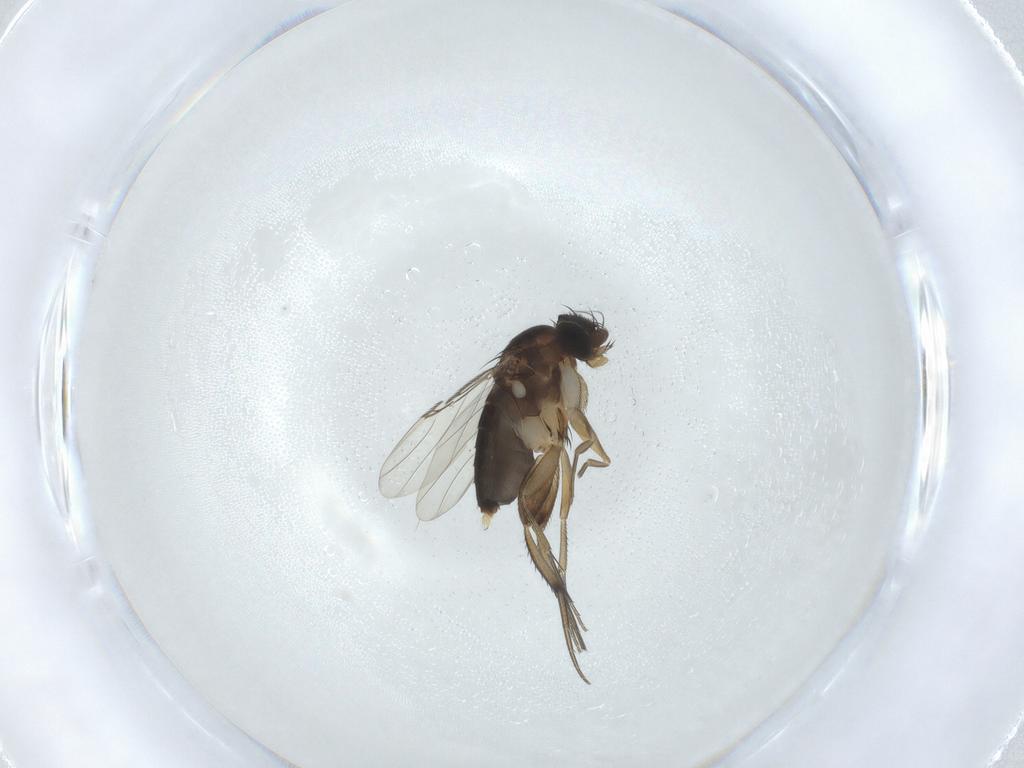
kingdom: Animalia
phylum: Arthropoda
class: Insecta
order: Diptera
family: Phoridae
